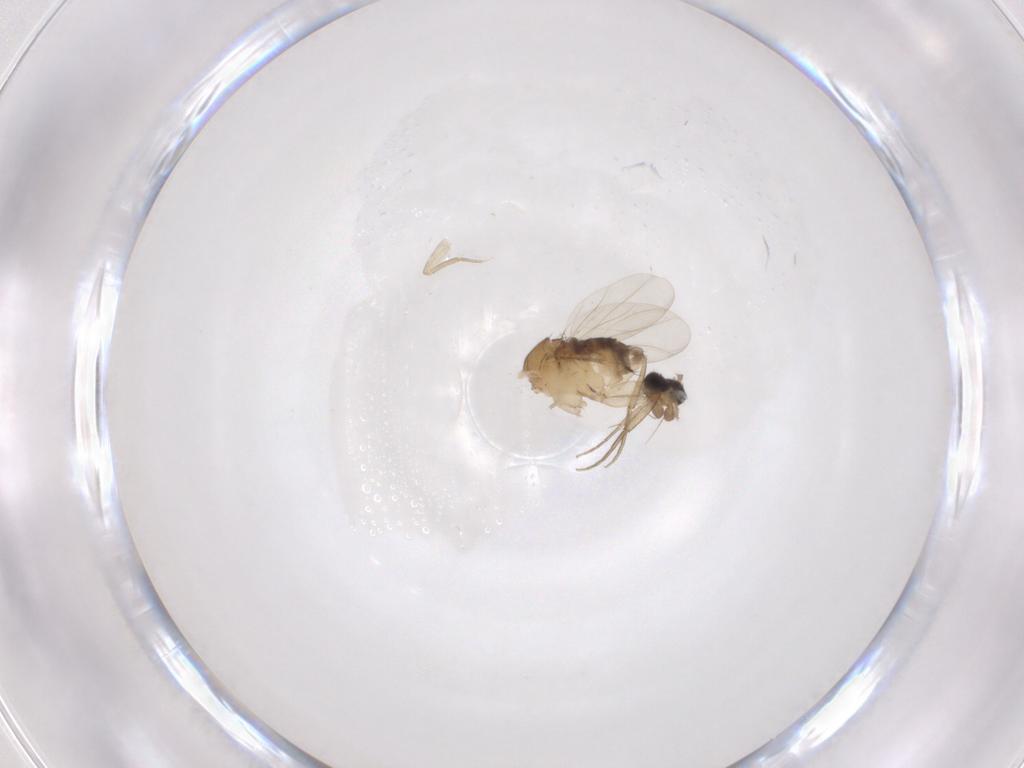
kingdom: Animalia
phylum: Arthropoda
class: Insecta
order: Diptera
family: Phoridae
